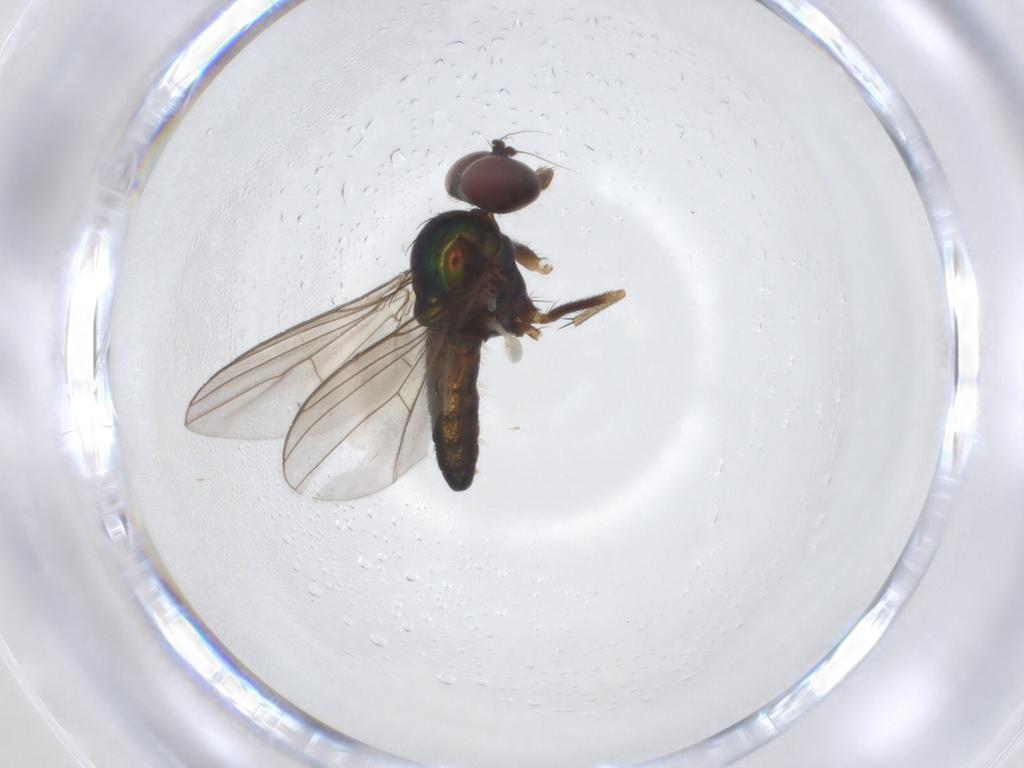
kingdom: Animalia
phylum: Arthropoda
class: Insecta
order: Diptera
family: Dolichopodidae
